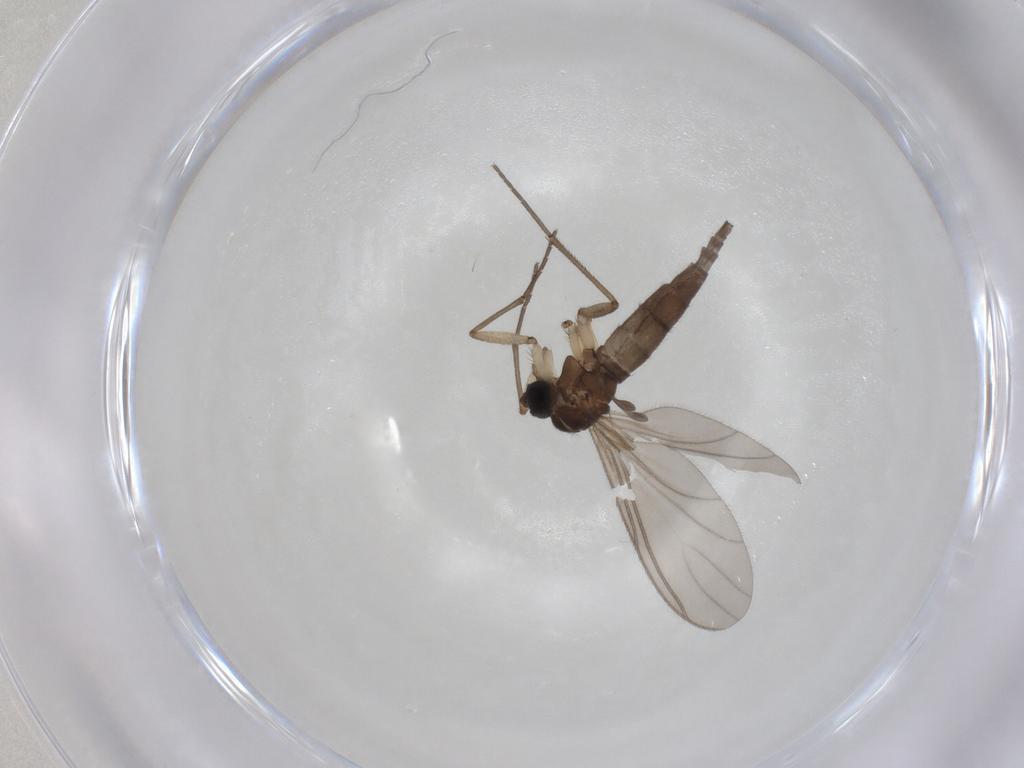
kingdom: Animalia
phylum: Arthropoda
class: Insecta
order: Diptera
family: Sciaridae
